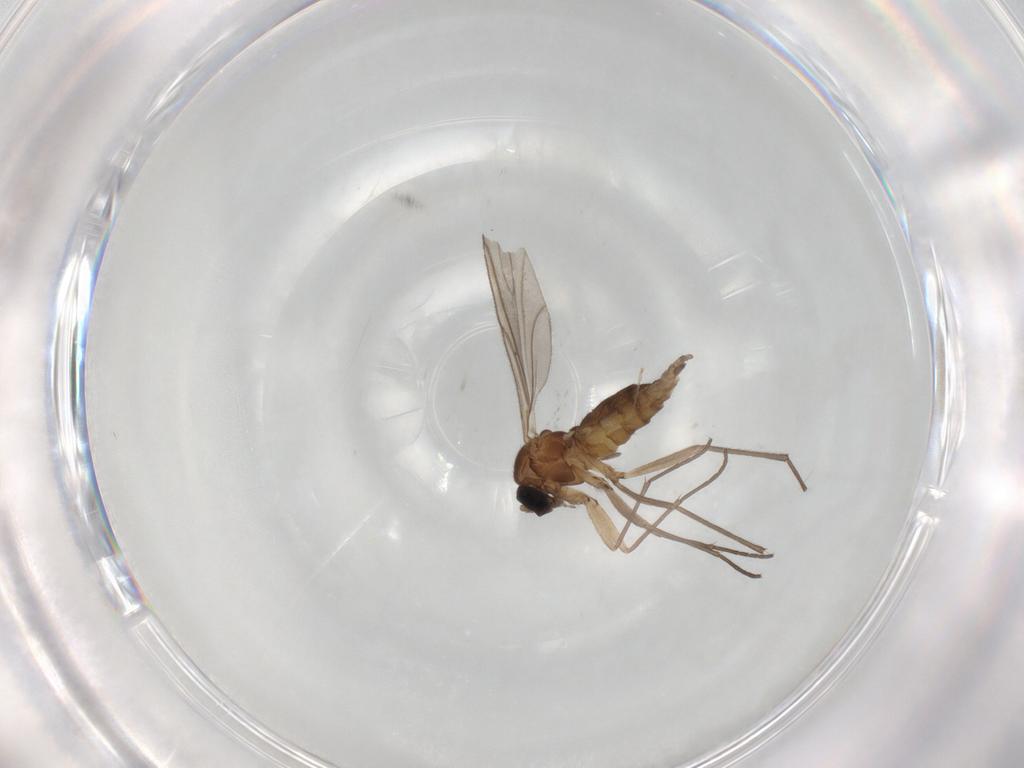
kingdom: Animalia
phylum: Arthropoda
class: Insecta
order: Diptera
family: Sciaridae
